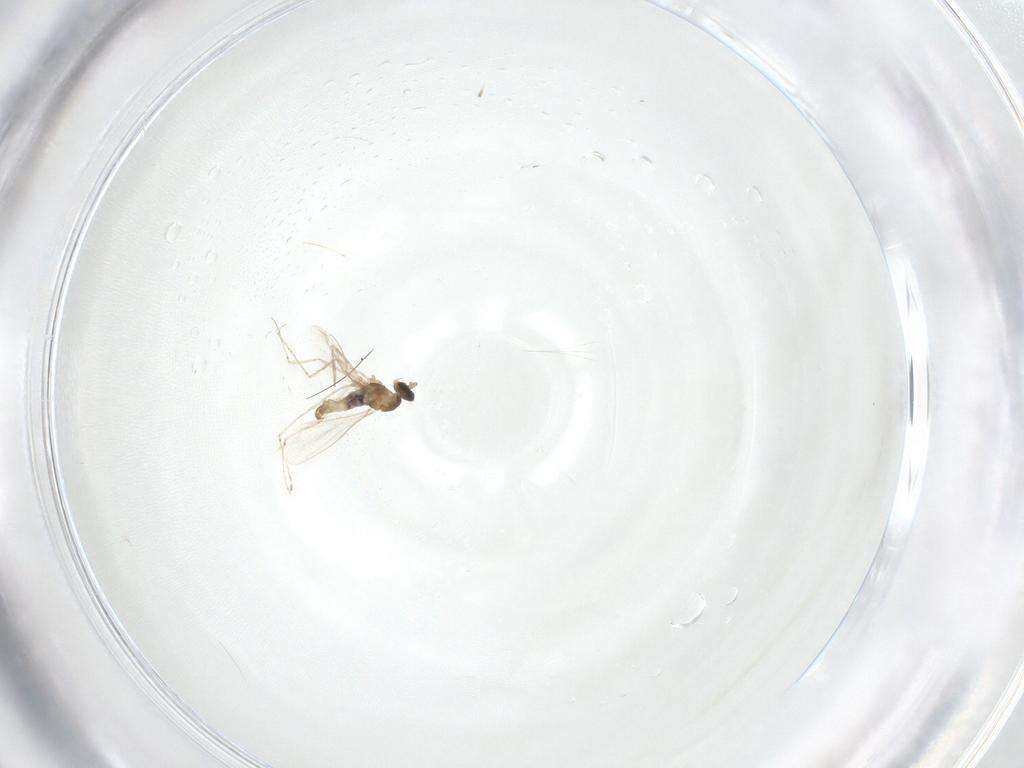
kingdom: Animalia
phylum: Arthropoda
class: Insecta
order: Diptera
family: Cecidomyiidae
